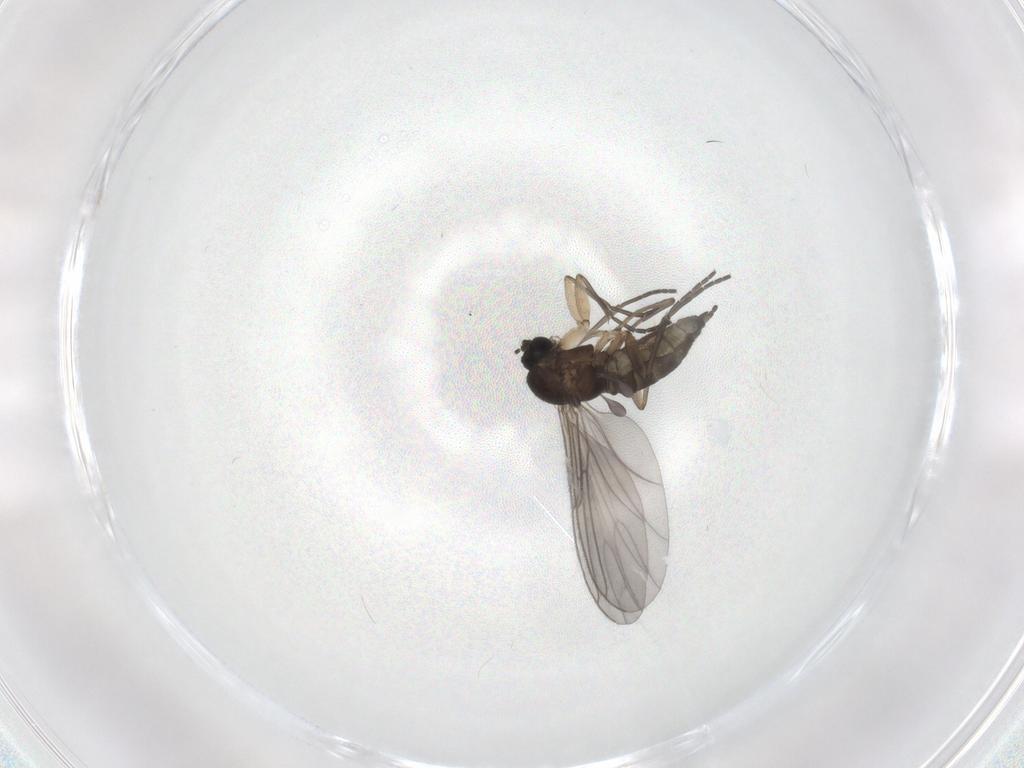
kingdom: Animalia
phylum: Arthropoda
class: Insecta
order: Diptera
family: Sciaridae
